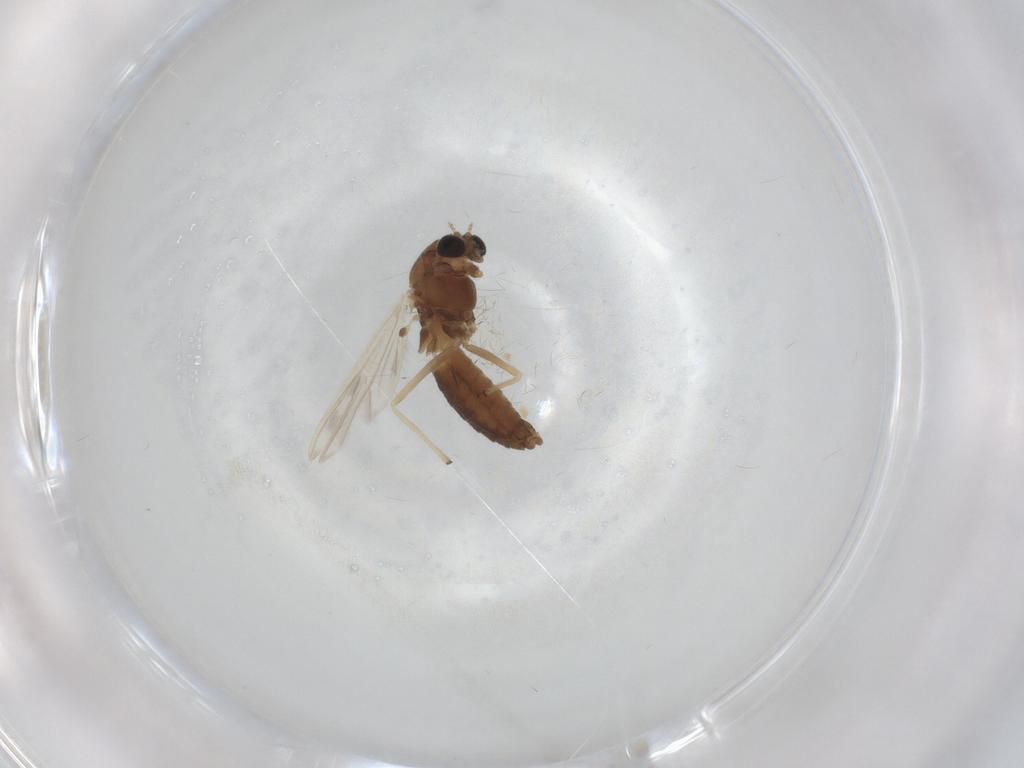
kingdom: Animalia
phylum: Arthropoda
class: Insecta
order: Diptera
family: Chironomidae
